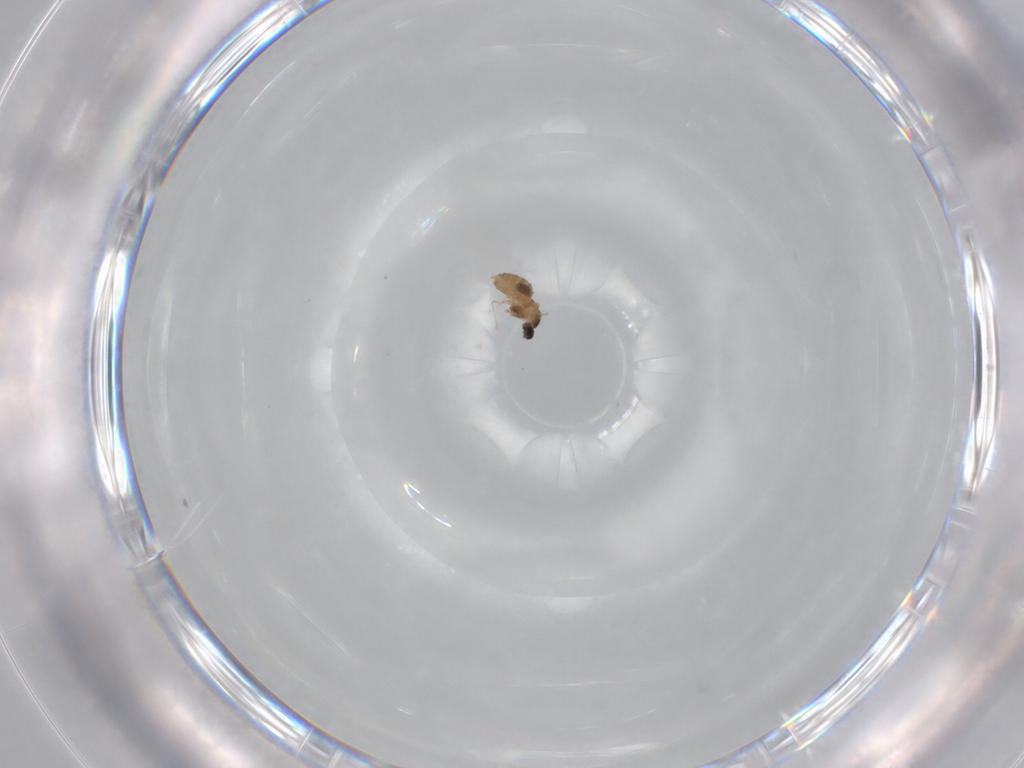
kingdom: Animalia
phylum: Arthropoda
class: Insecta
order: Diptera
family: Cecidomyiidae
